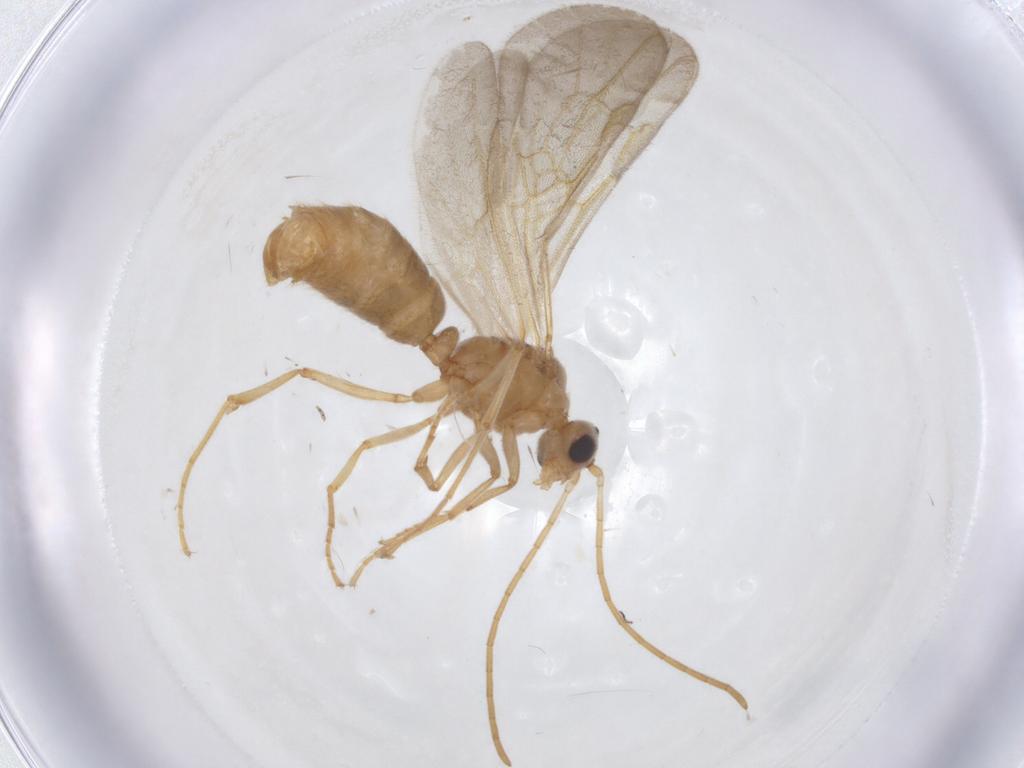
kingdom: Animalia
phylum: Arthropoda
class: Insecta
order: Hymenoptera
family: Formicidae
